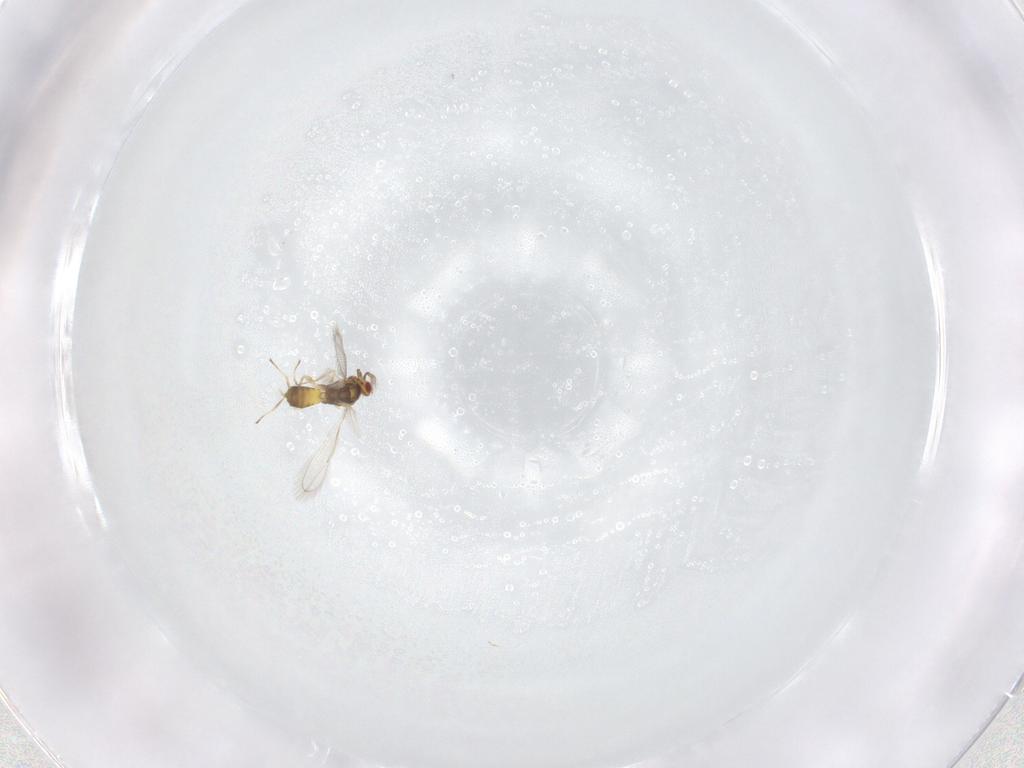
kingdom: Animalia
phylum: Arthropoda
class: Insecta
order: Hymenoptera
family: Eulophidae
